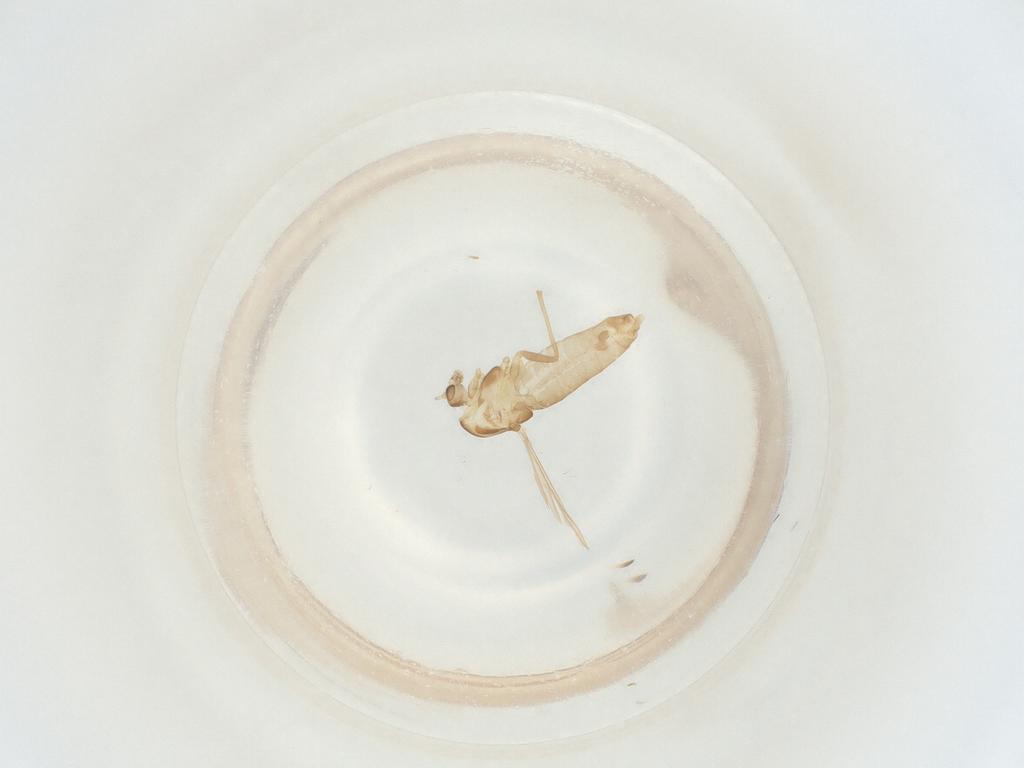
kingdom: Animalia
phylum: Arthropoda
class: Insecta
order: Diptera
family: Chironomidae
